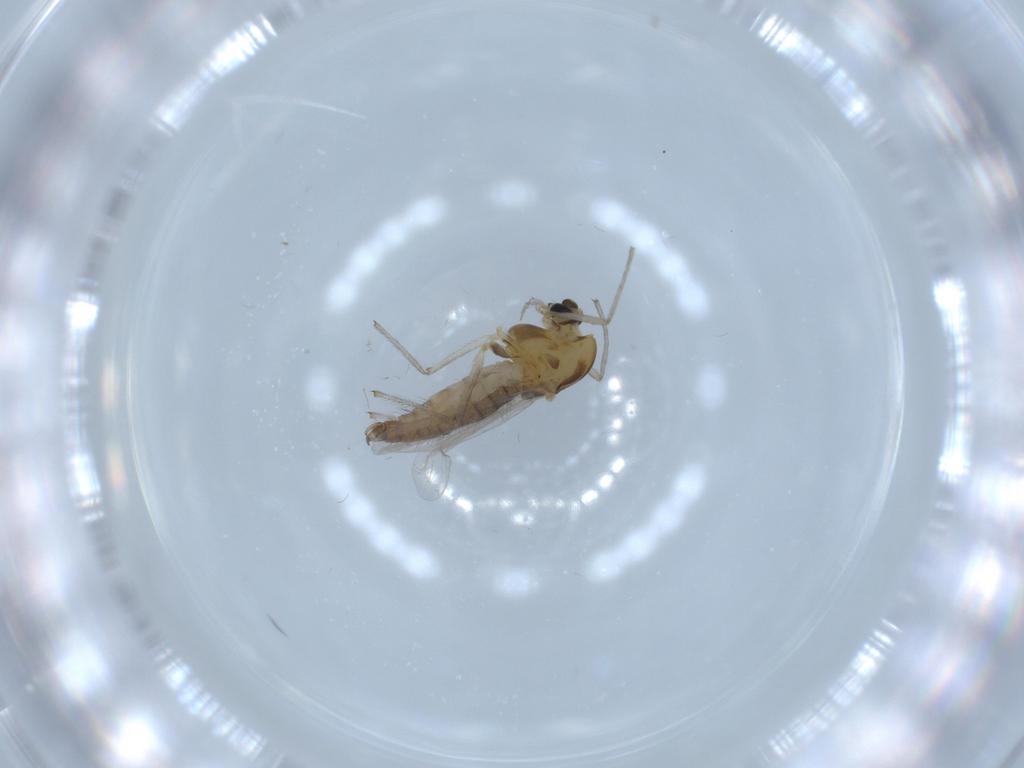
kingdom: Animalia
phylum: Arthropoda
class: Insecta
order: Diptera
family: Chironomidae
